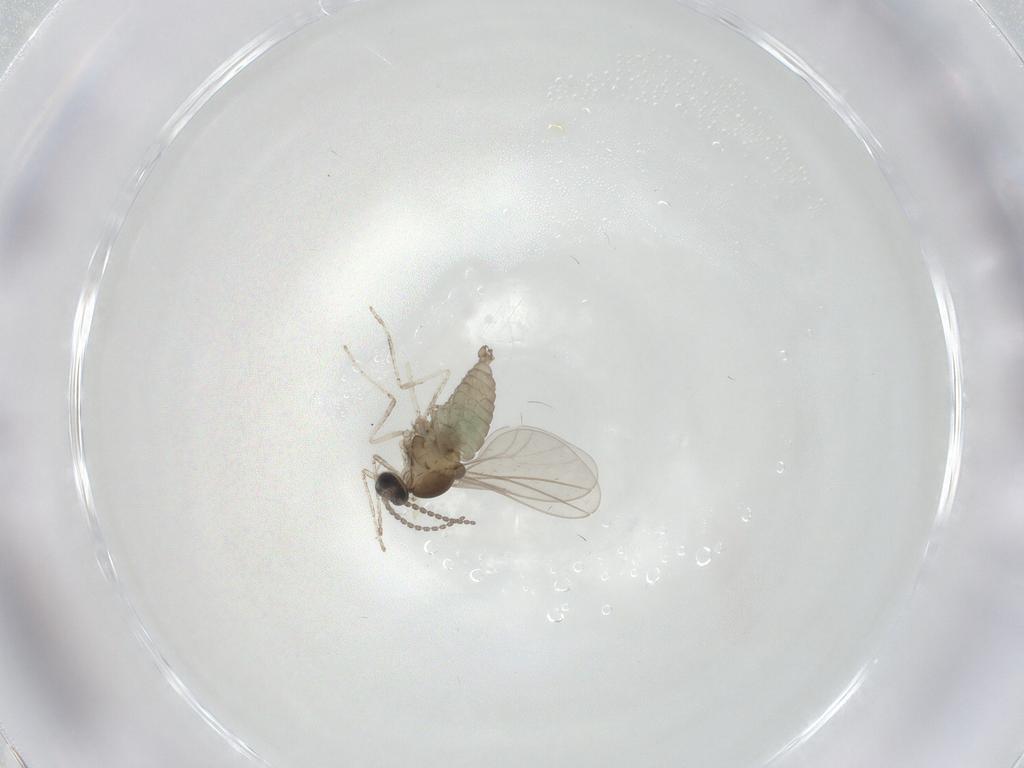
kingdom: Animalia
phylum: Arthropoda
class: Insecta
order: Diptera
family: Cecidomyiidae
